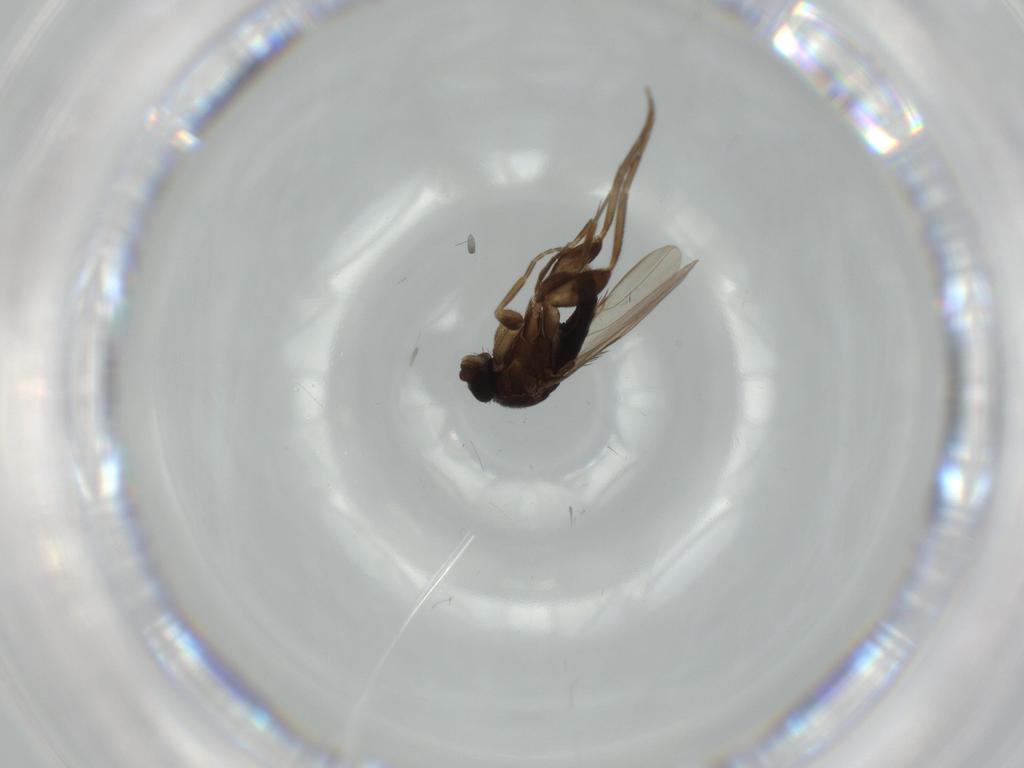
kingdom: Animalia
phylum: Arthropoda
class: Insecta
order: Diptera
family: Phoridae
